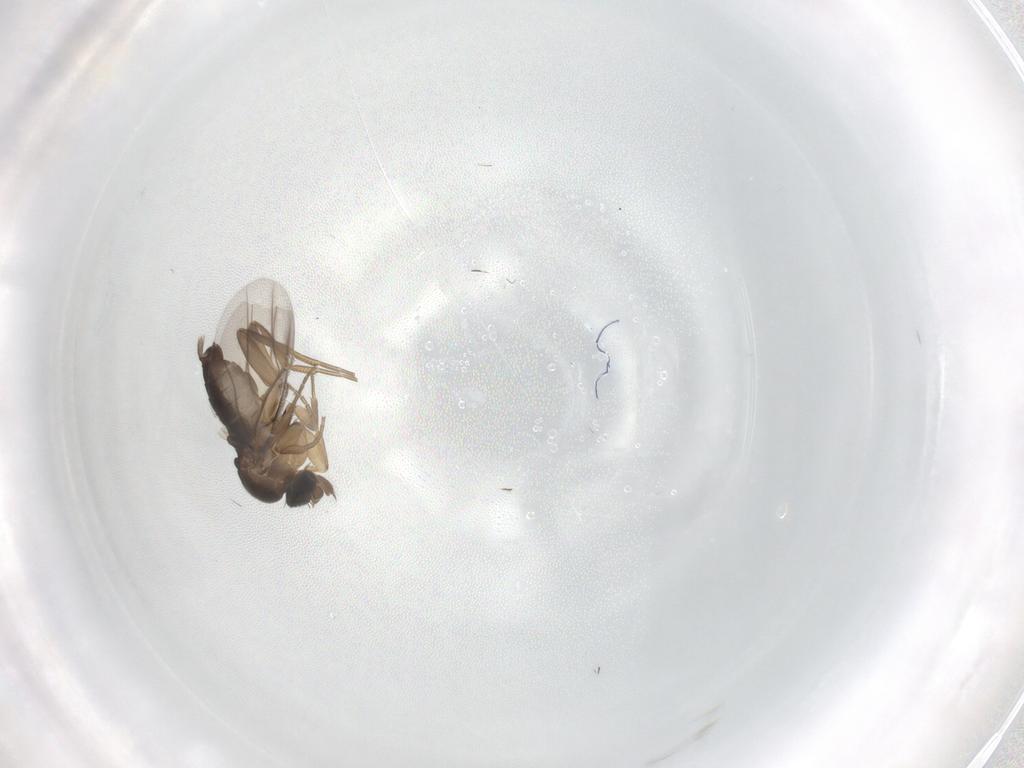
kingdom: Animalia
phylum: Arthropoda
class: Insecta
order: Diptera
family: Phoridae
